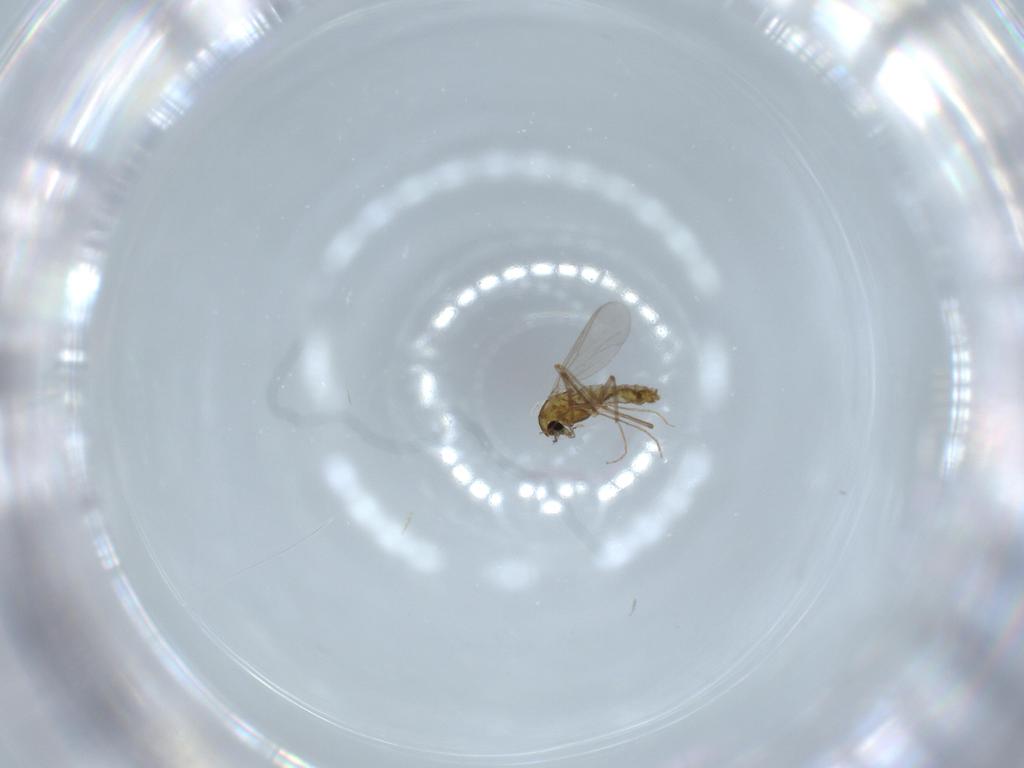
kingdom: Animalia
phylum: Arthropoda
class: Insecta
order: Diptera
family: Chironomidae
